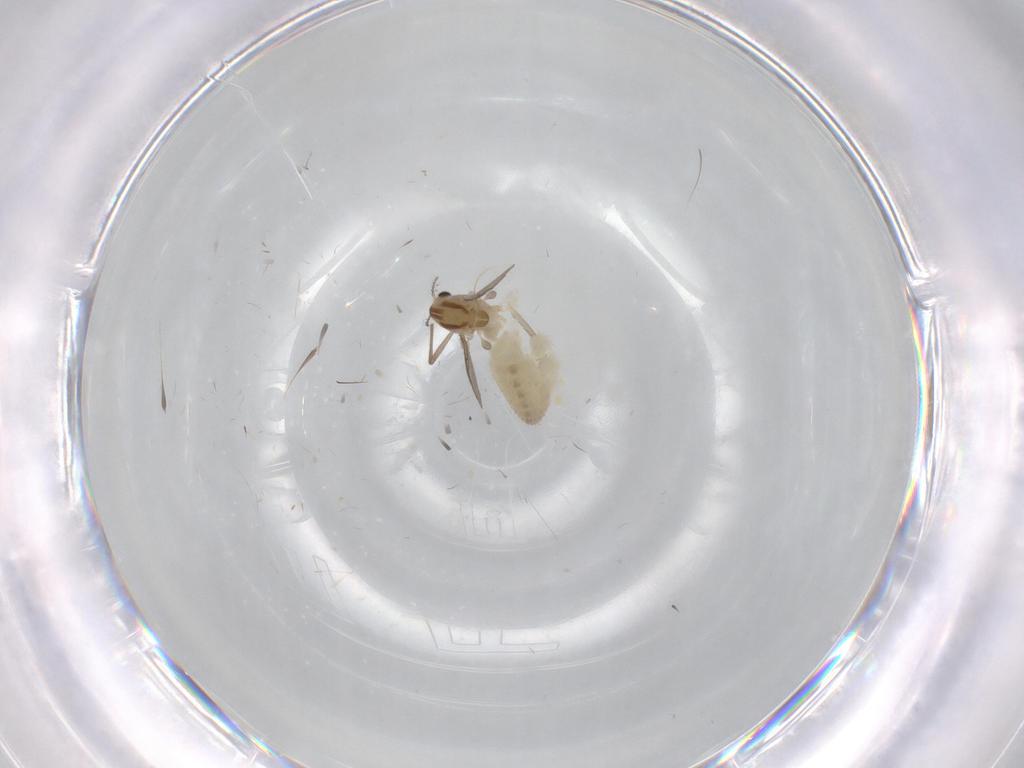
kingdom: Animalia
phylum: Arthropoda
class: Insecta
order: Diptera
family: Chironomidae
